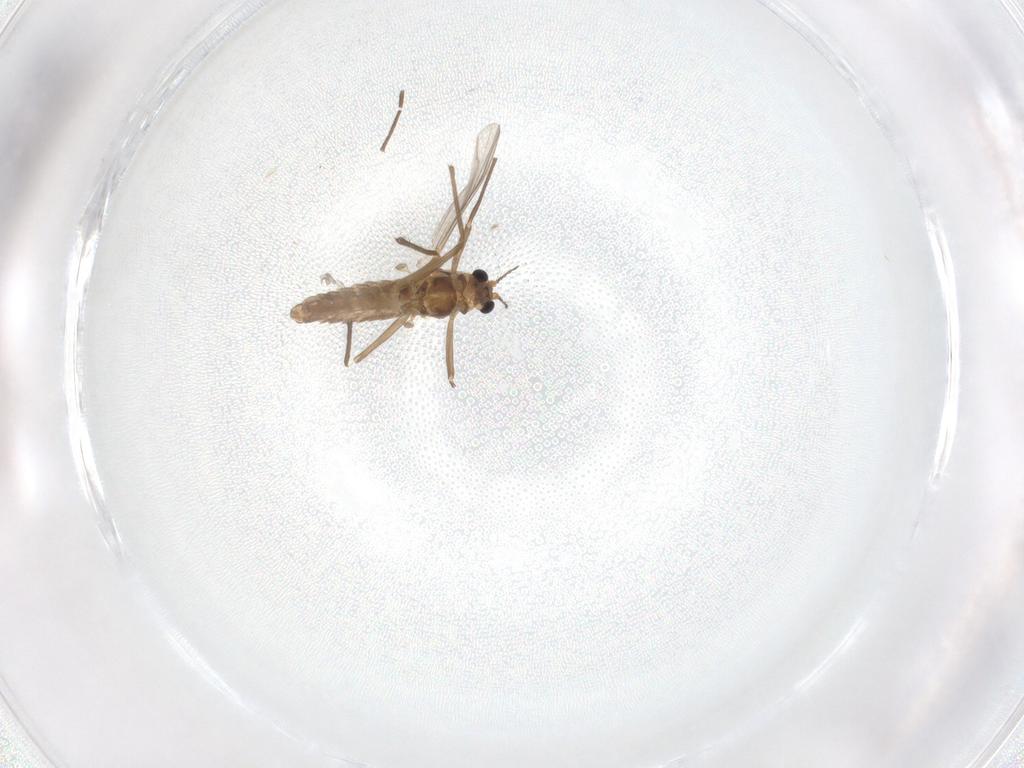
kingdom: Animalia
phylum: Arthropoda
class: Insecta
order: Diptera
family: Chironomidae
